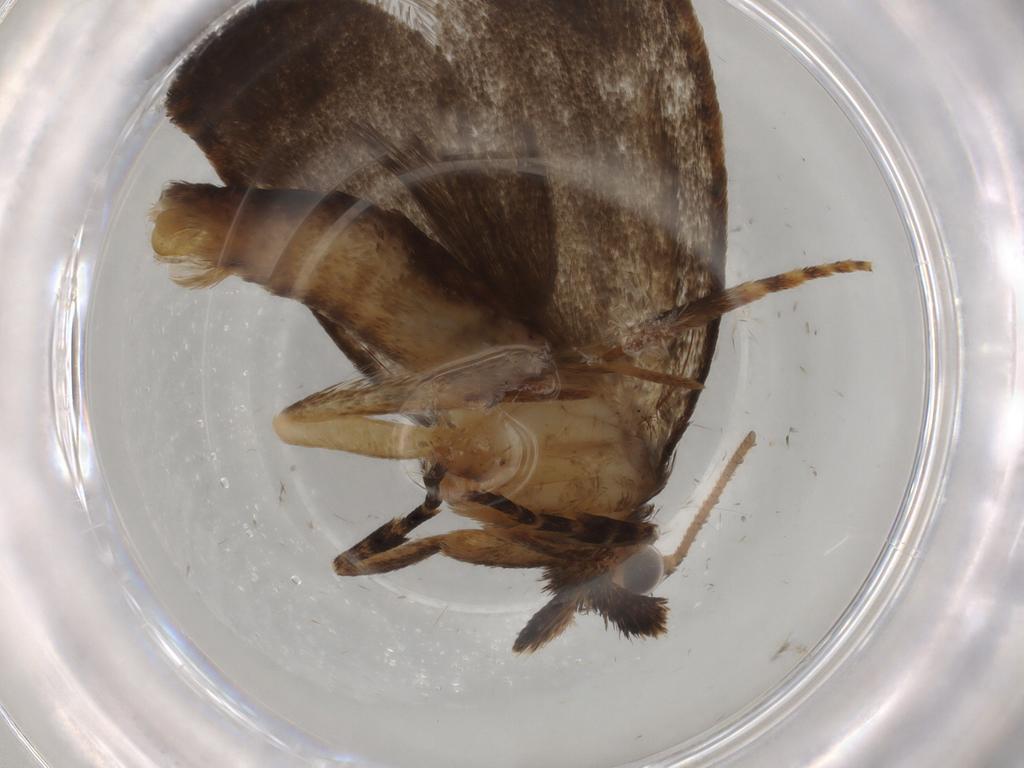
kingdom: Animalia
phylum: Arthropoda
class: Insecta
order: Lepidoptera
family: Tineidae
